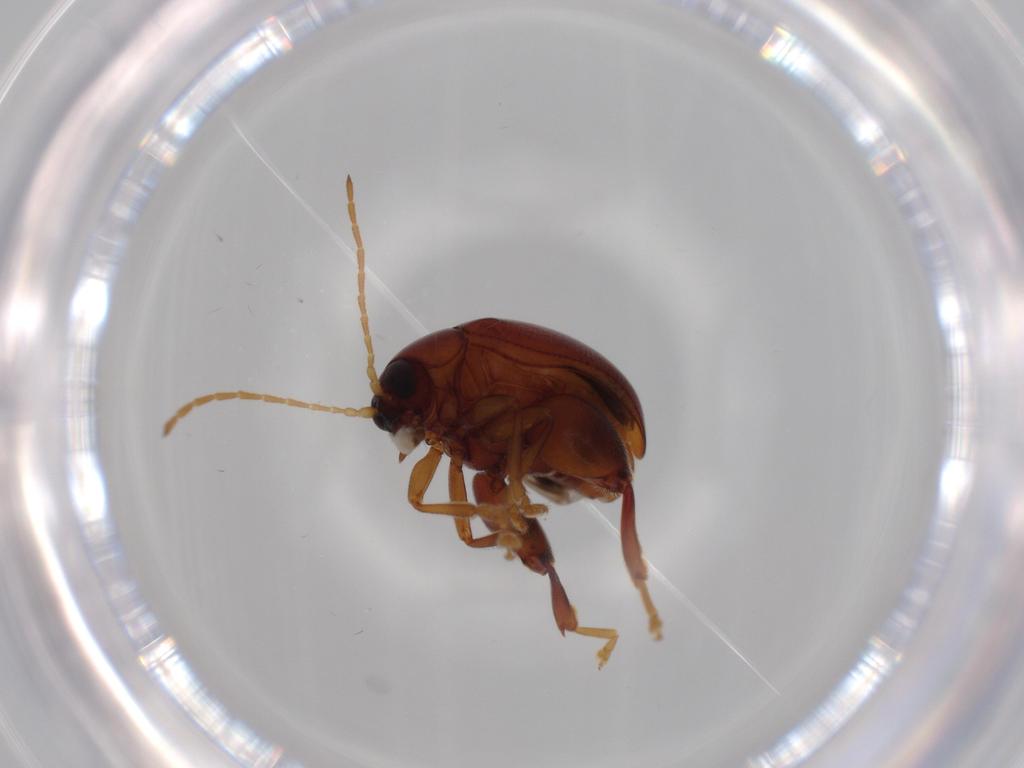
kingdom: Animalia
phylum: Arthropoda
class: Insecta
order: Coleoptera
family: Chrysomelidae
